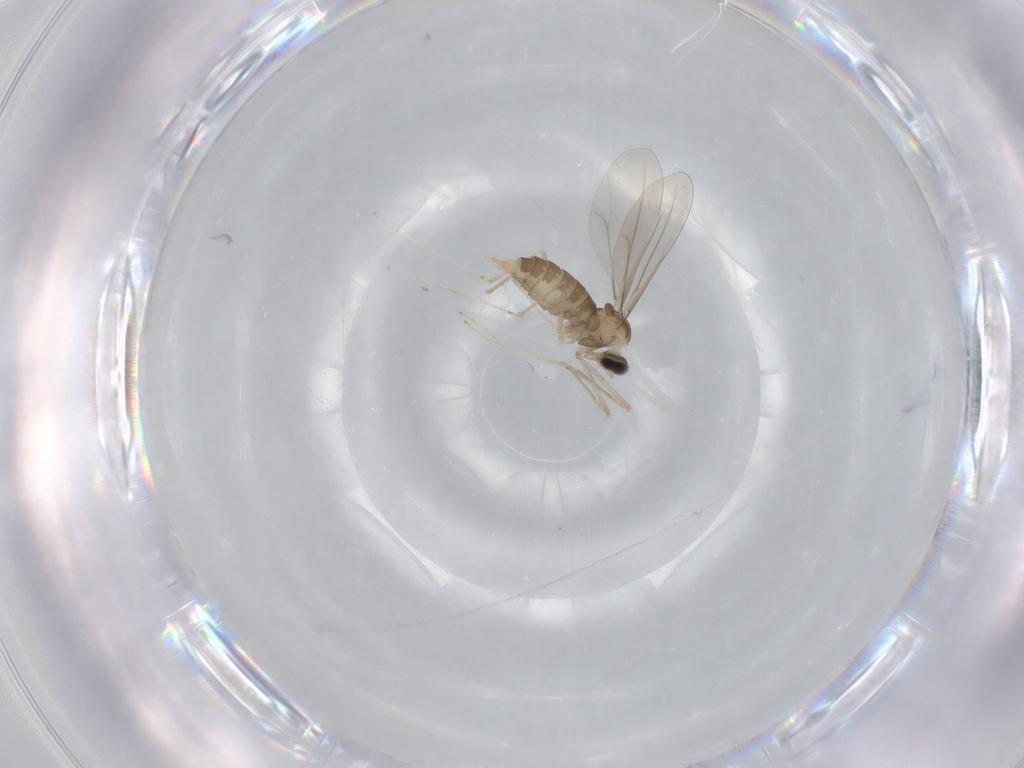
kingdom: Animalia
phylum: Arthropoda
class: Insecta
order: Diptera
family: Cecidomyiidae
